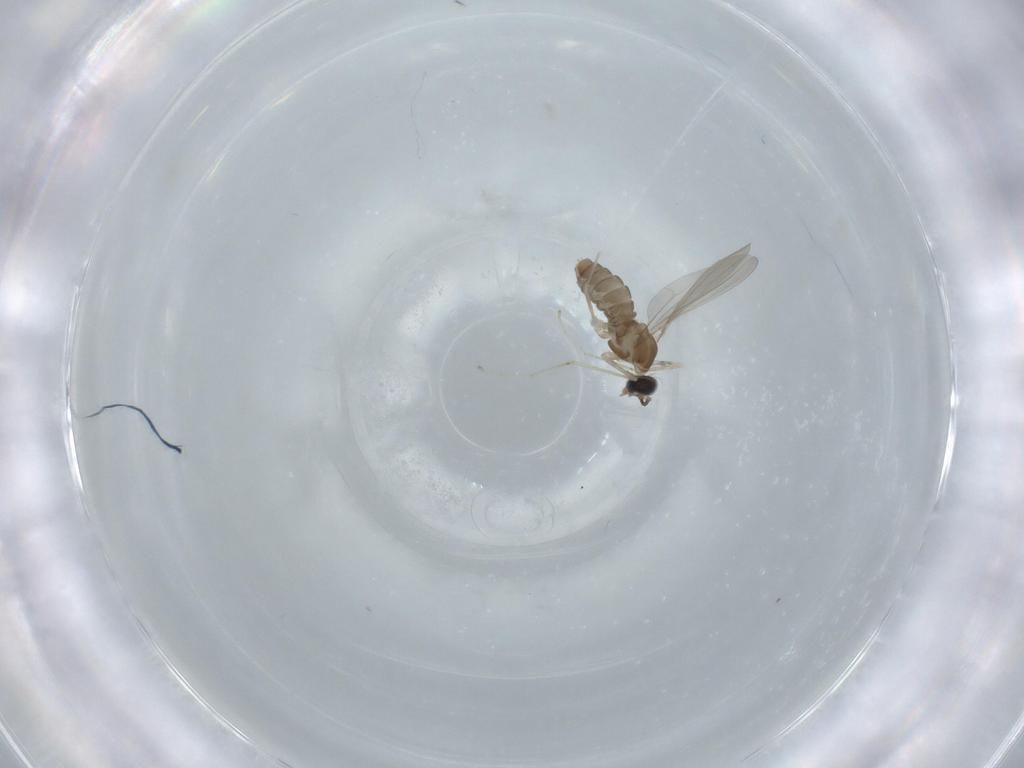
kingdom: Animalia
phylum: Arthropoda
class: Insecta
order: Diptera
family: Cecidomyiidae
